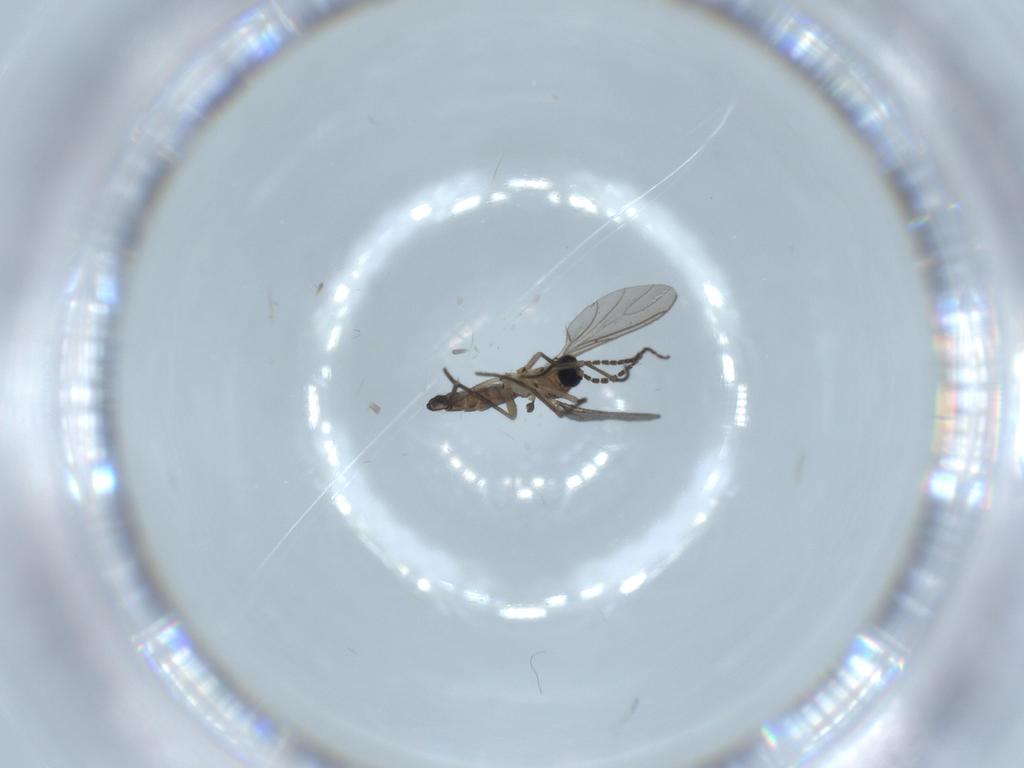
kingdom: Animalia
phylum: Arthropoda
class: Insecta
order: Diptera
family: Sciaridae
